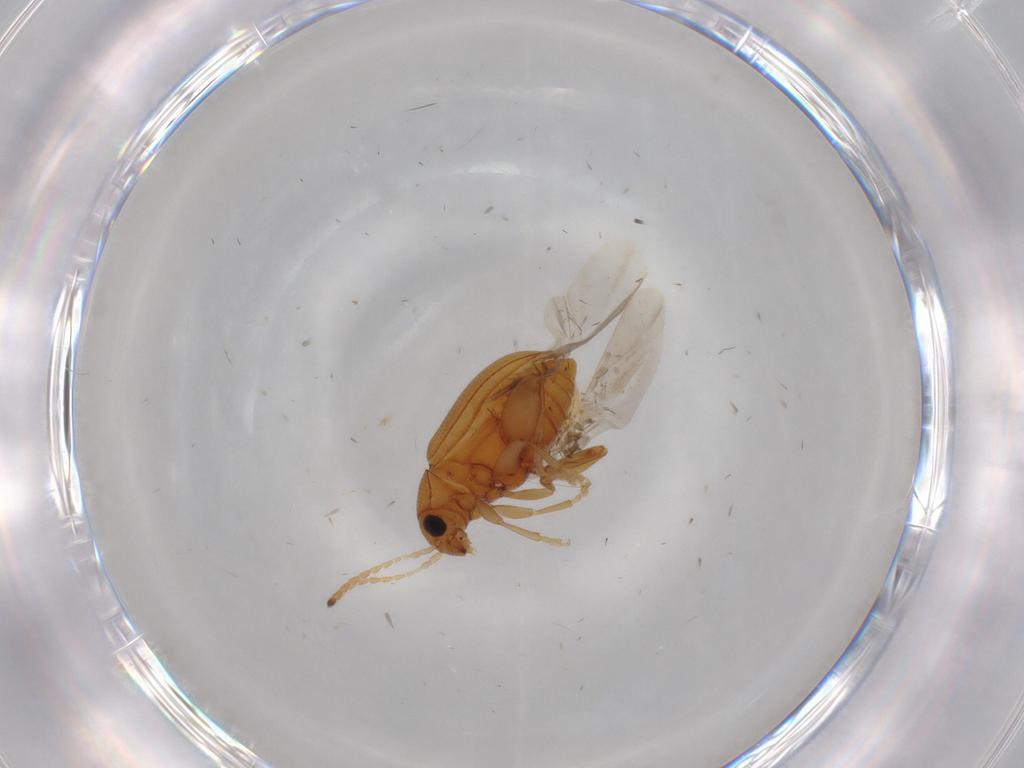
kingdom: Animalia
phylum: Arthropoda
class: Insecta
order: Coleoptera
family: Chrysomelidae
